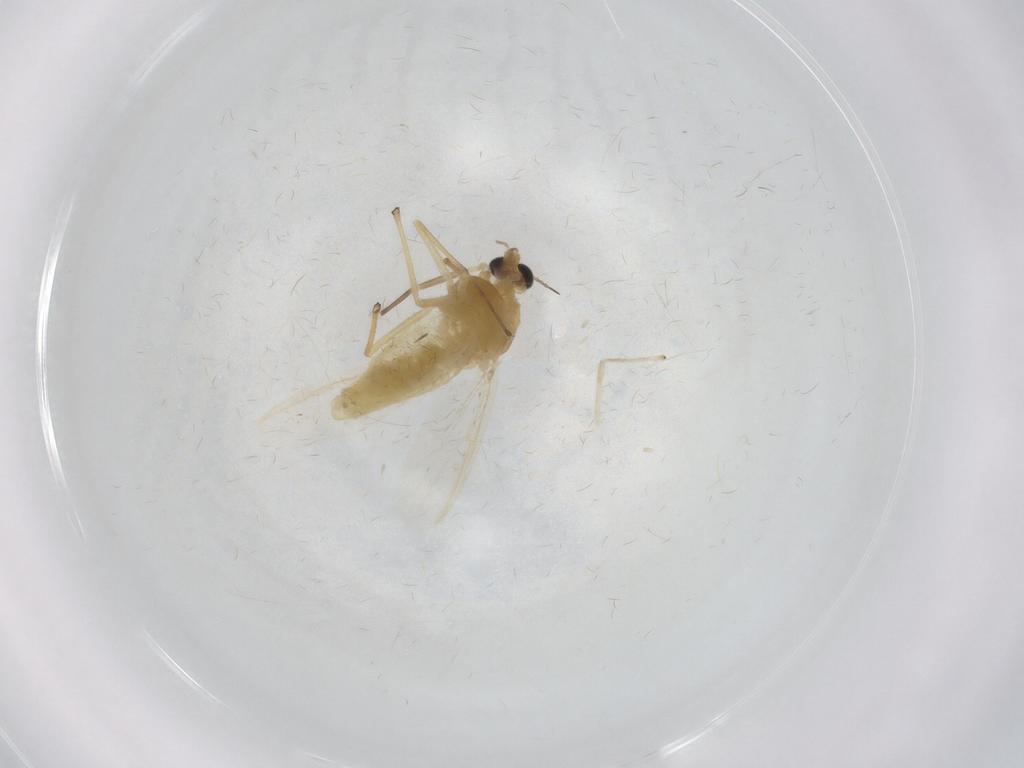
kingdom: Animalia
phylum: Arthropoda
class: Insecta
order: Diptera
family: Chironomidae
